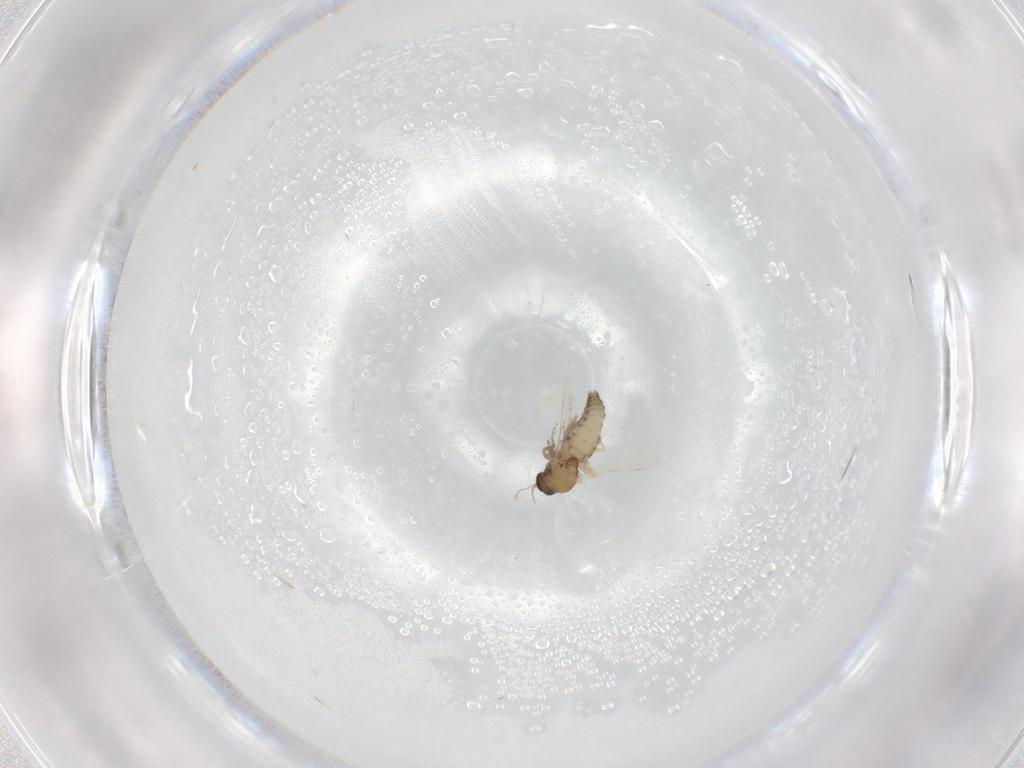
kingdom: Animalia
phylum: Arthropoda
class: Insecta
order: Diptera
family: Ceratopogonidae
